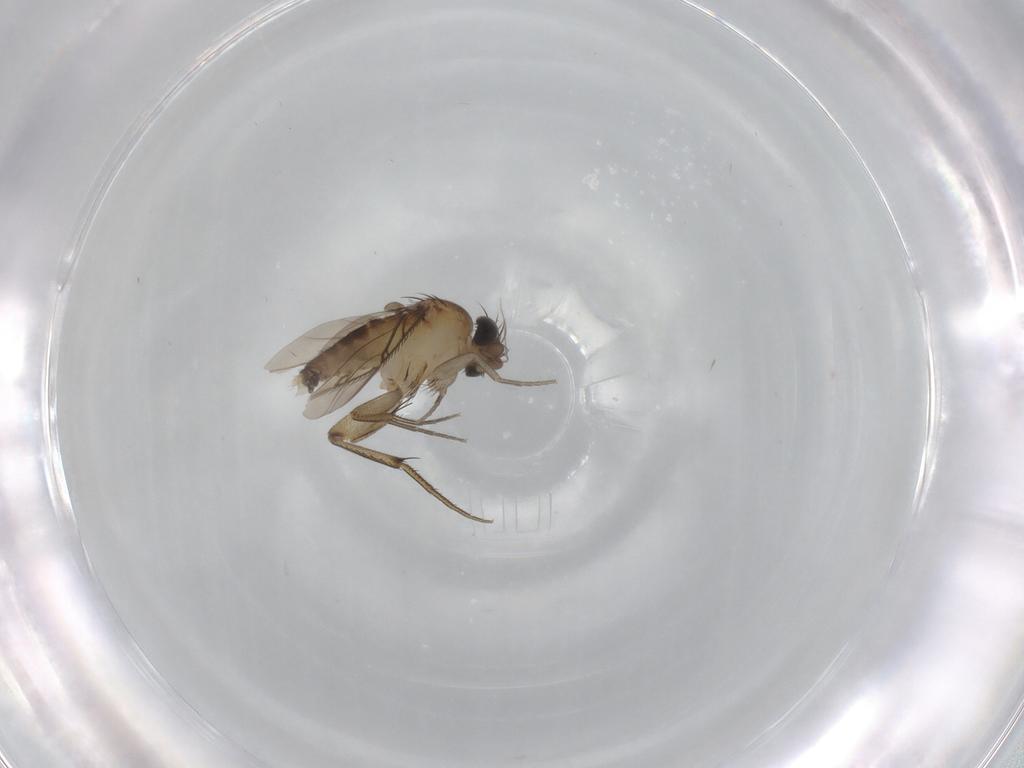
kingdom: Animalia
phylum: Arthropoda
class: Insecta
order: Diptera
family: Phoridae
